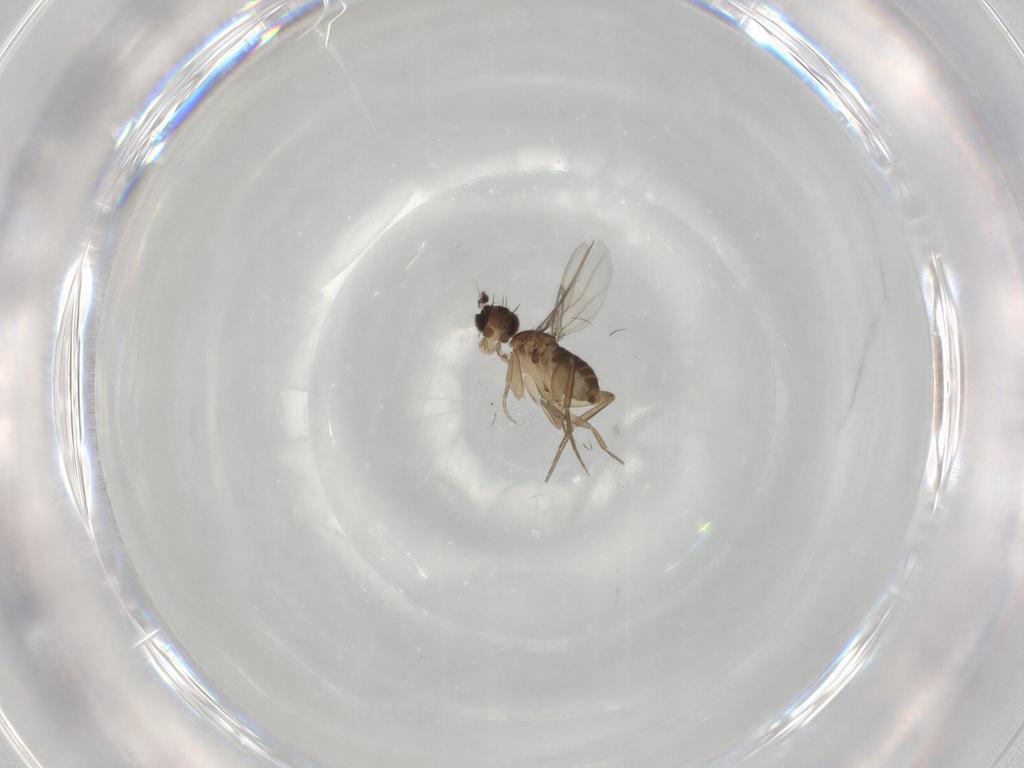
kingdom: Animalia
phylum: Arthropoda
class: Insecta
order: Diptera
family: Phoridae
